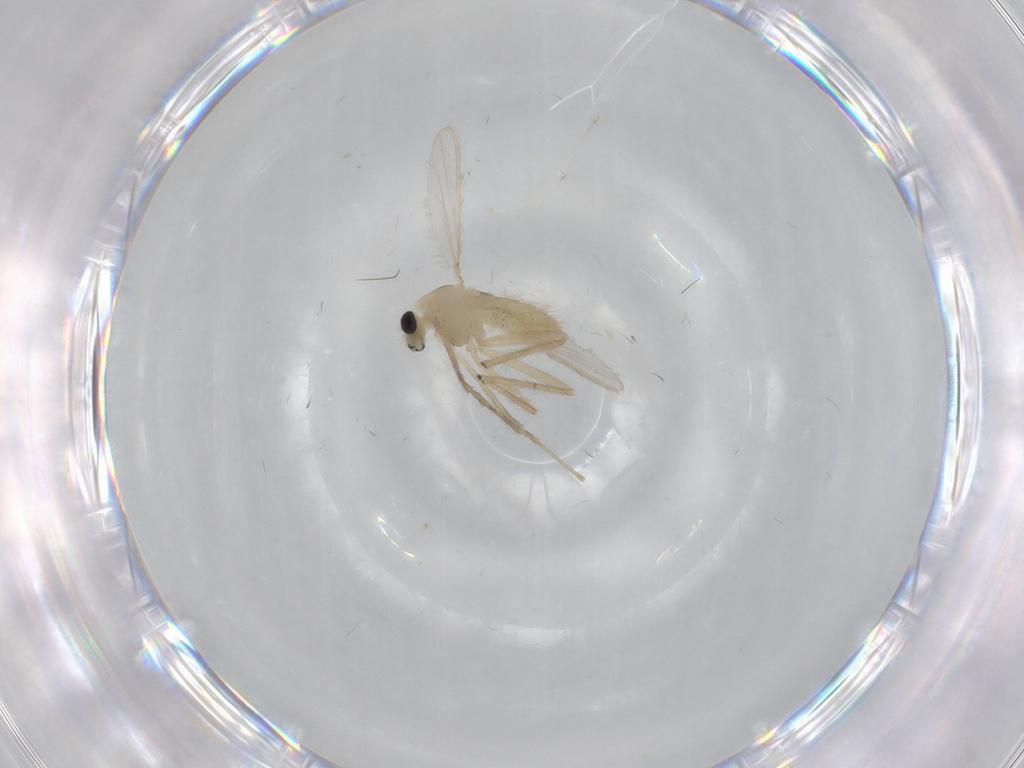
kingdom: Animalia
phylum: Arthropoda
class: Insecta
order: Diptera
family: Chironomidae
